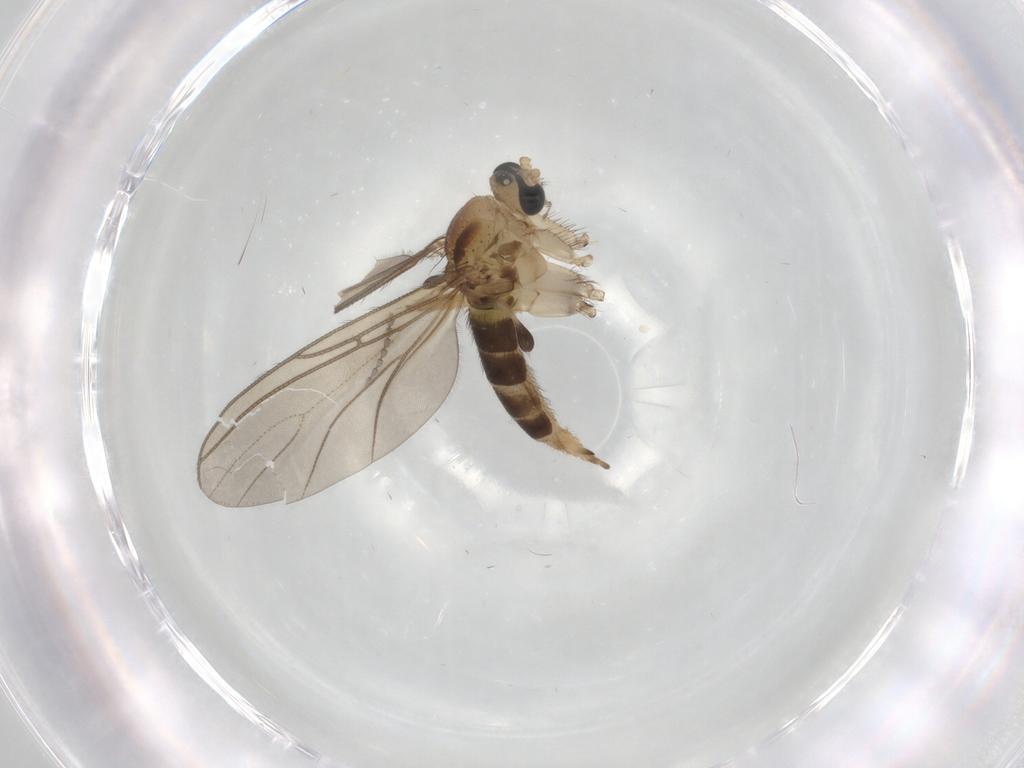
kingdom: Animalia
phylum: Arthropoda
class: Insecta
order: Diptera
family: Sciaridae
